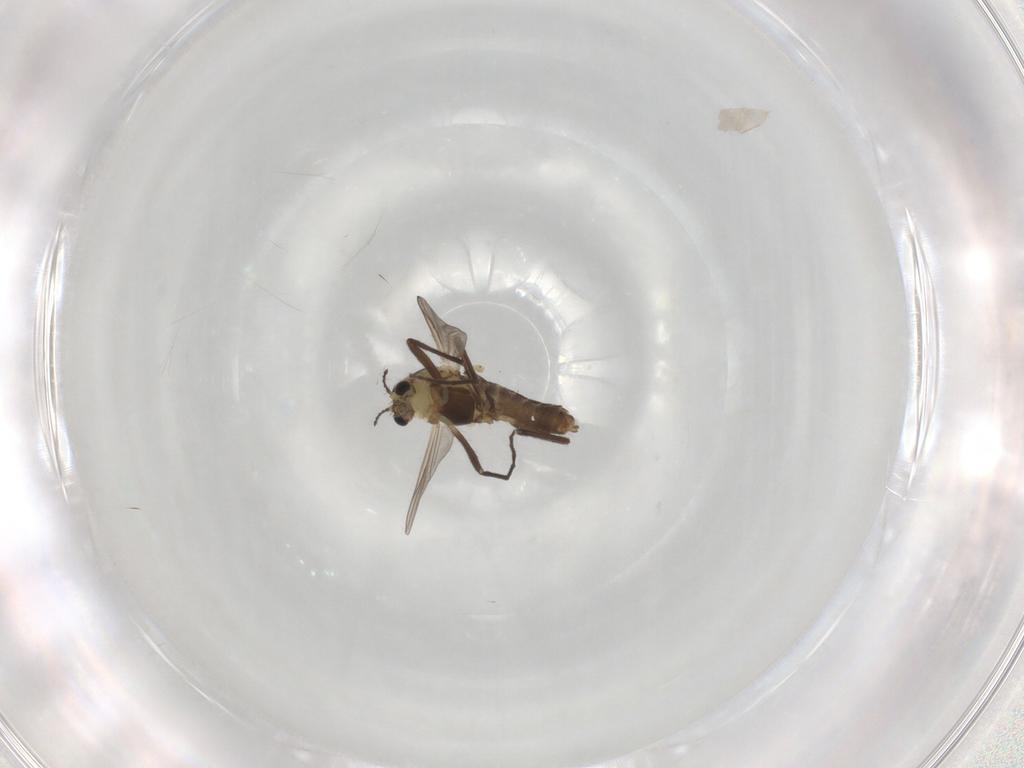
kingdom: Animalia
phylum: Arthropoda
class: Insecta
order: Diptera
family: Chironomidae
